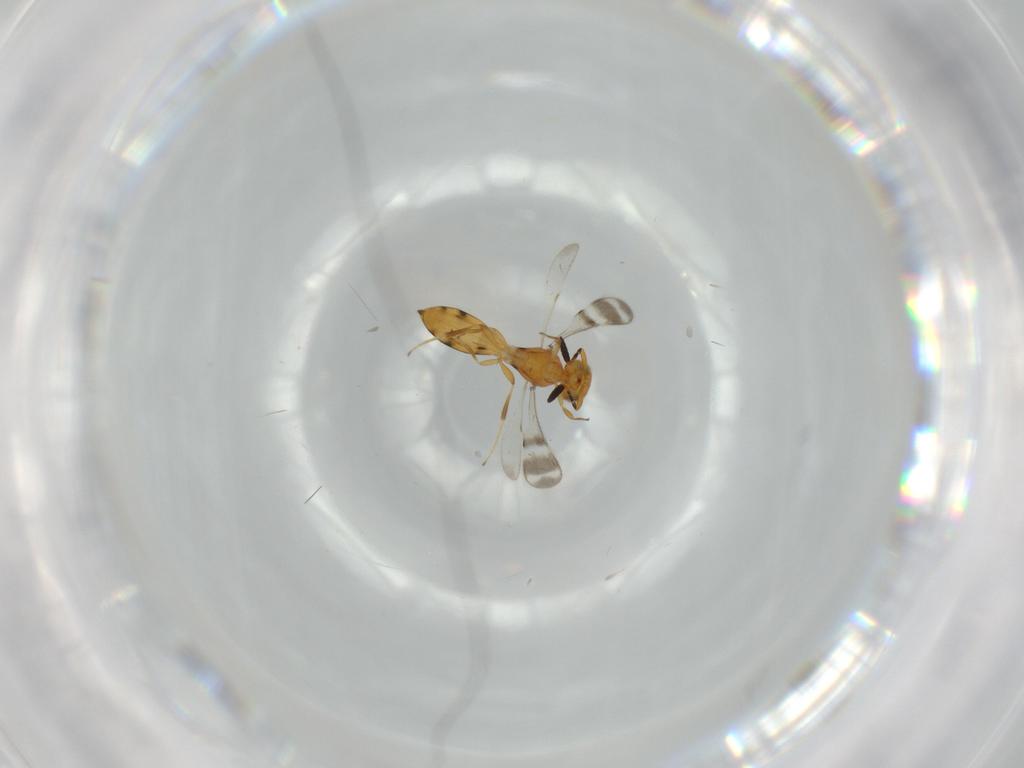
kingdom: Animalia
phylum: Arthropoda
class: Insecta
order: Hymenoptera
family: Scelionidae
